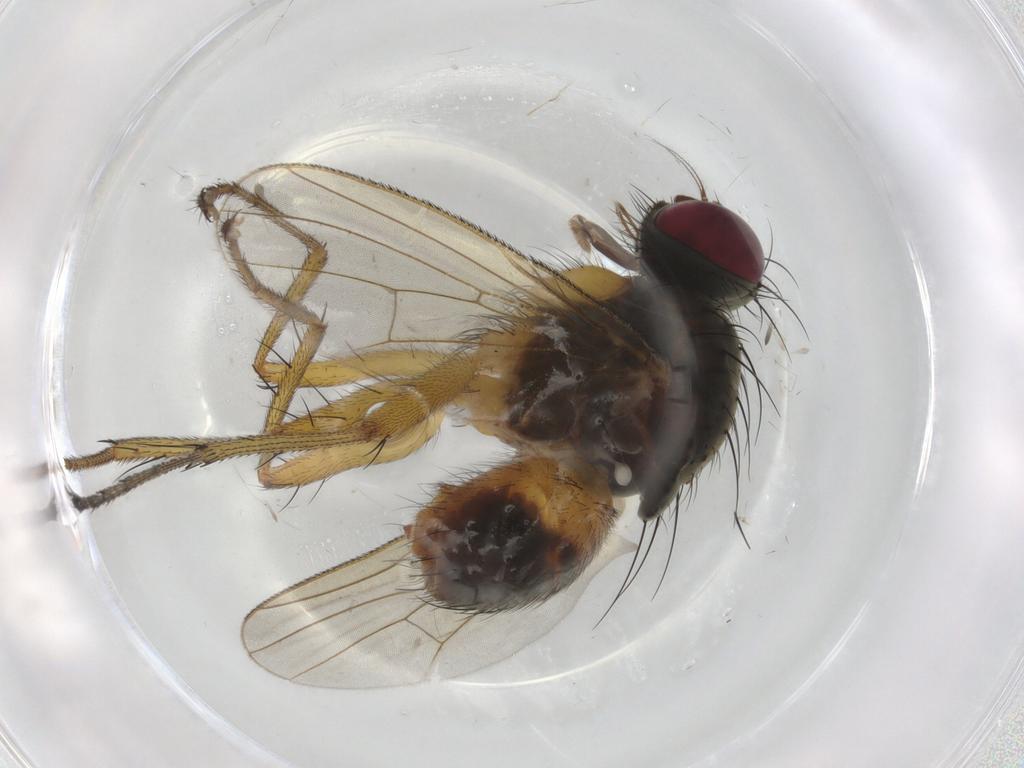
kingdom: Animalia
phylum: Arthropoda
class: Insecta
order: Diptera
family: Muscidae
